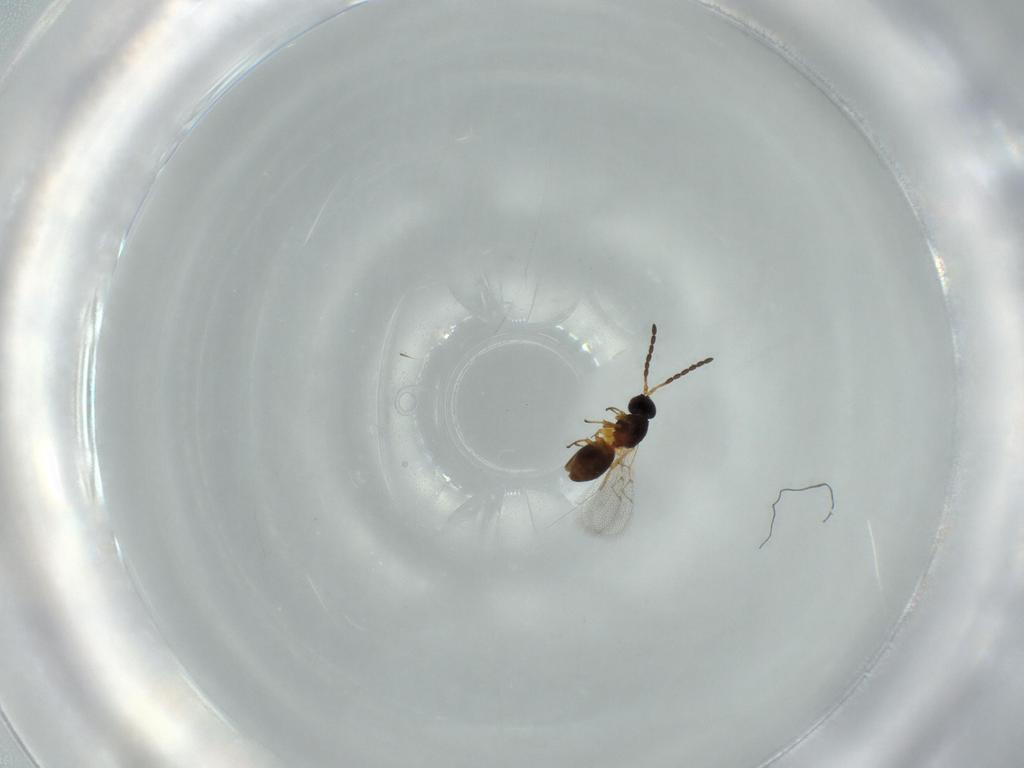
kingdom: Animalia
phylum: Arthropoda
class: Insecta
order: Hymenoptera
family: Figitidae
